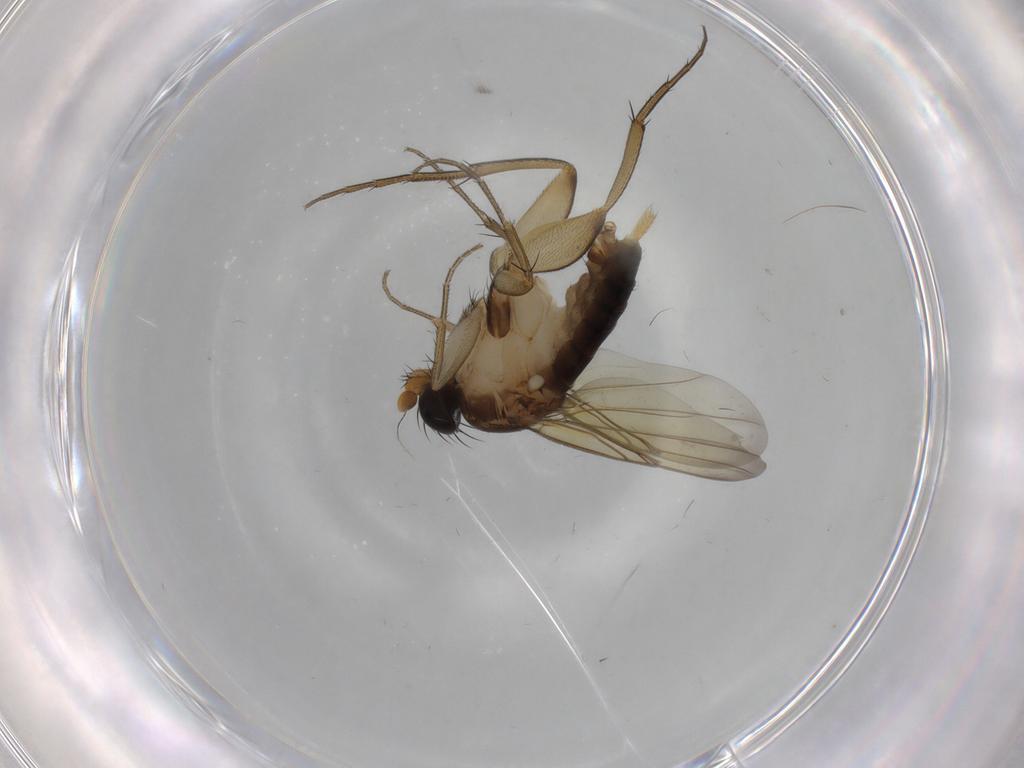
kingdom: Animalia
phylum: Arthropoda
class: Insecta
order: Diptera
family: Phoridae
